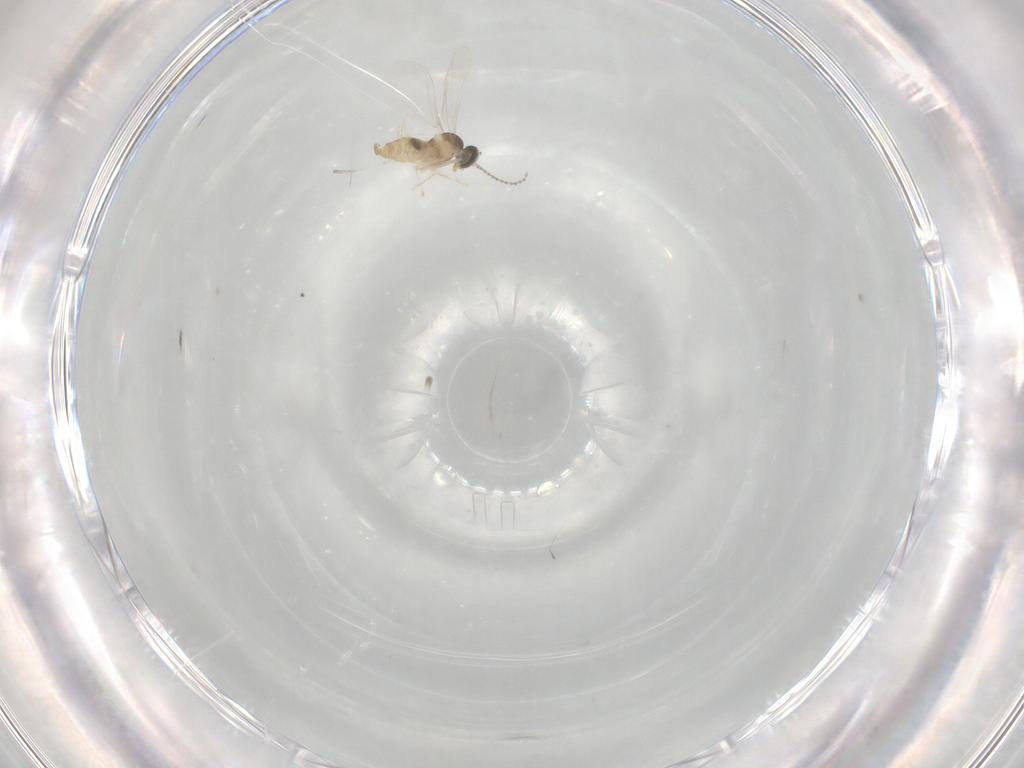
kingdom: Animalia
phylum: Arthropoda
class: Insecta
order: Diptera
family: Cecidomyiidae
